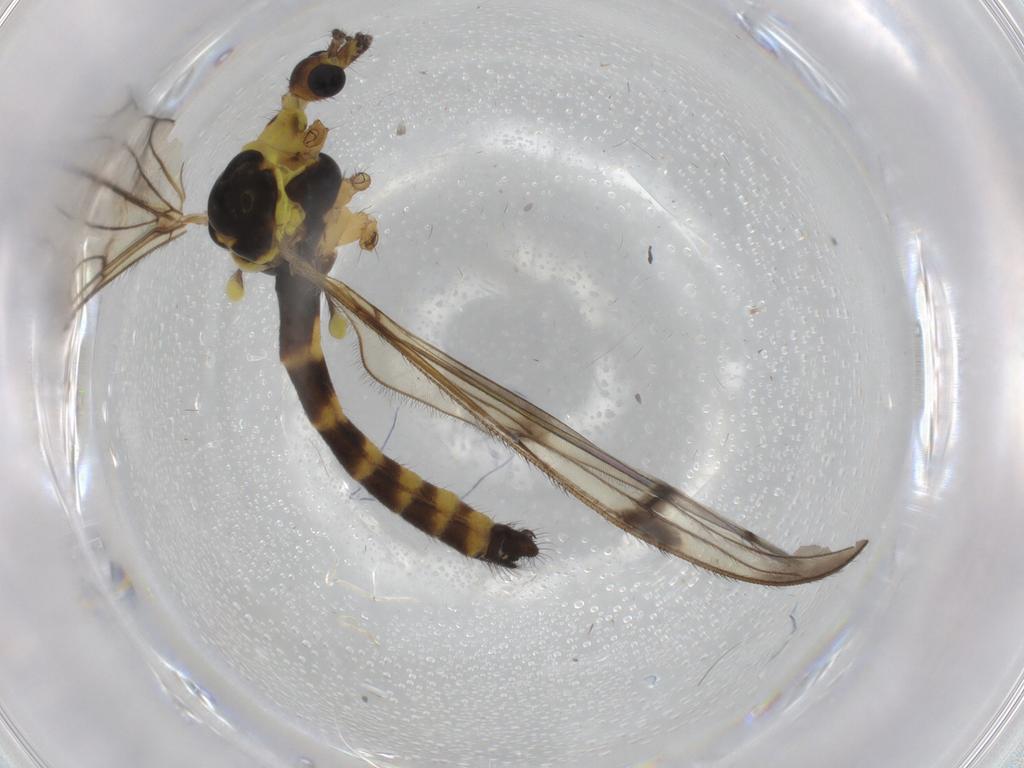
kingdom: Animalia
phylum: Arthropoda
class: Insecta
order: Diptera
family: Limoniidae
